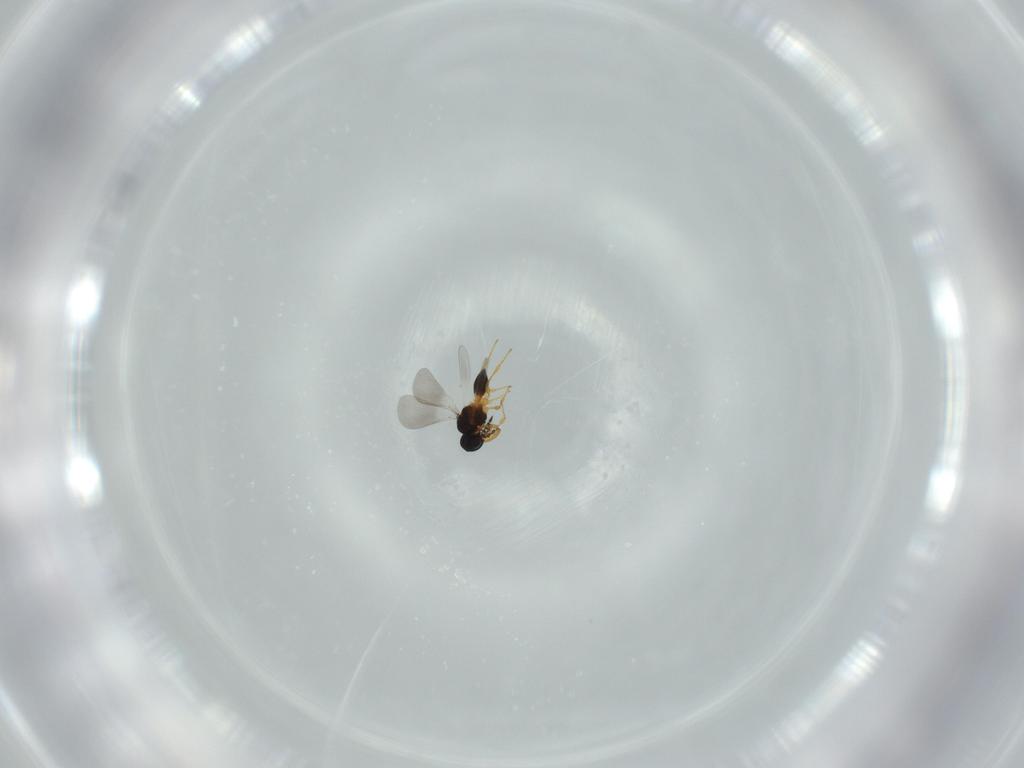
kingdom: Animalia
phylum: Arthropoda
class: Insecta
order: Hymenoptera
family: Platygastridae
